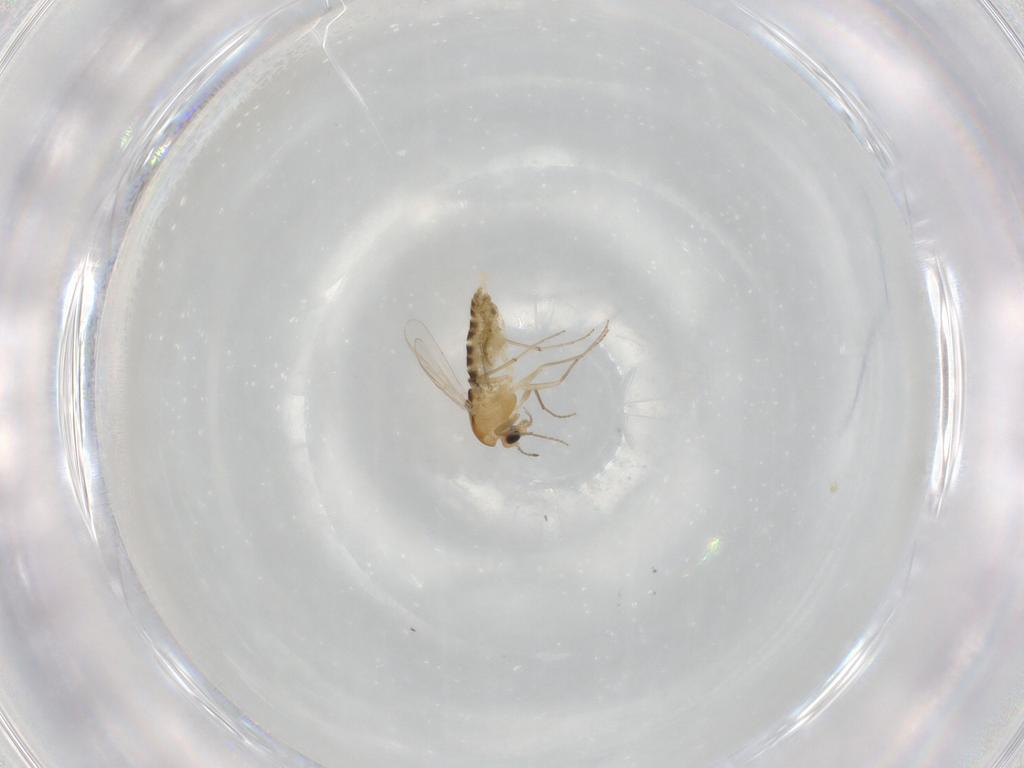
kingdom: Animalia
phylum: Arthropoda
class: Insecta
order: Diptera
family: Chironomidae
